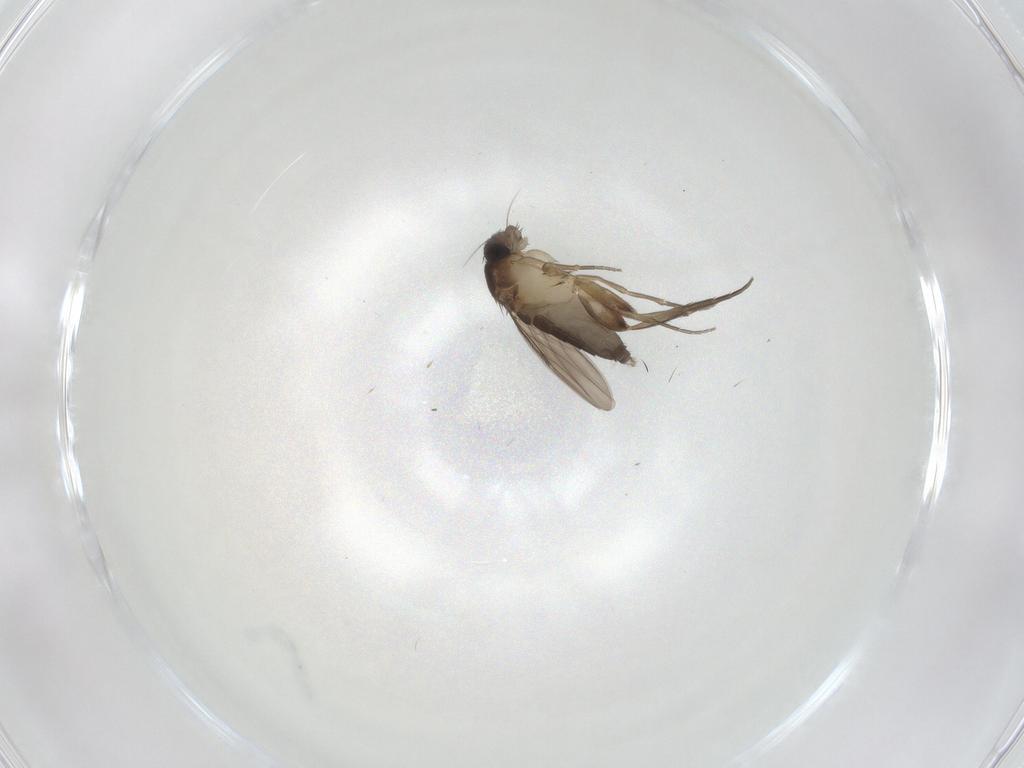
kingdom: Animalia
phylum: Arthropoda
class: Insecta
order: Diptera
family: Phoridae
